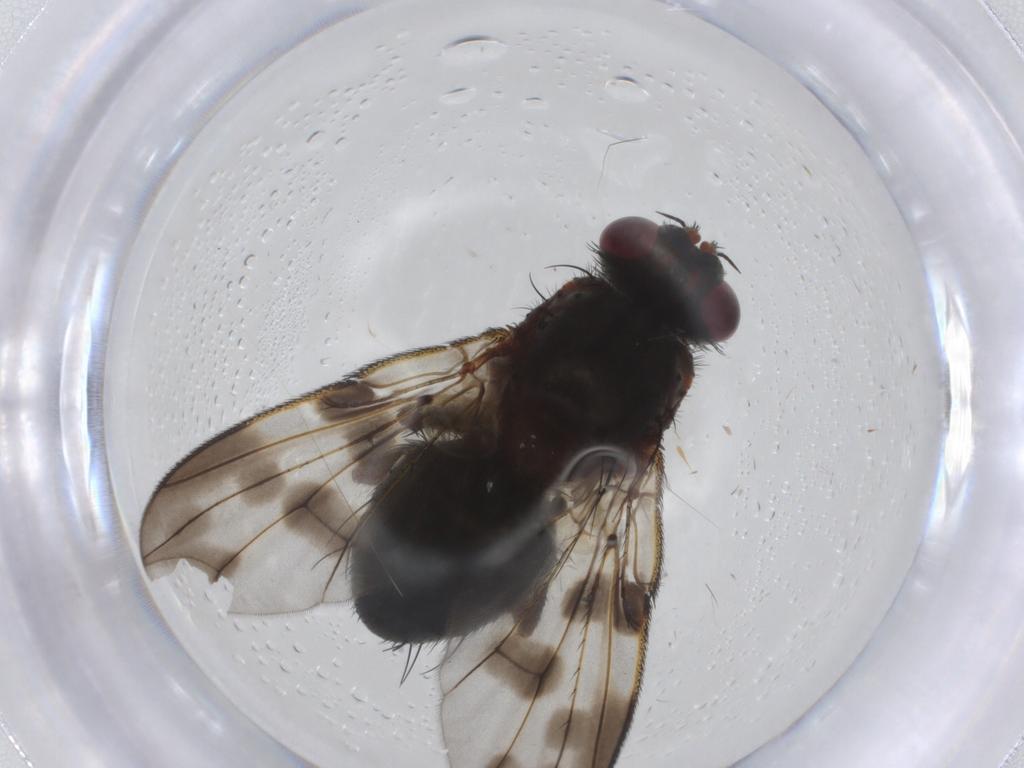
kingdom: Animalia
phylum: Arthropoda
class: Insecta
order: Diptera
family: Tachinidae
